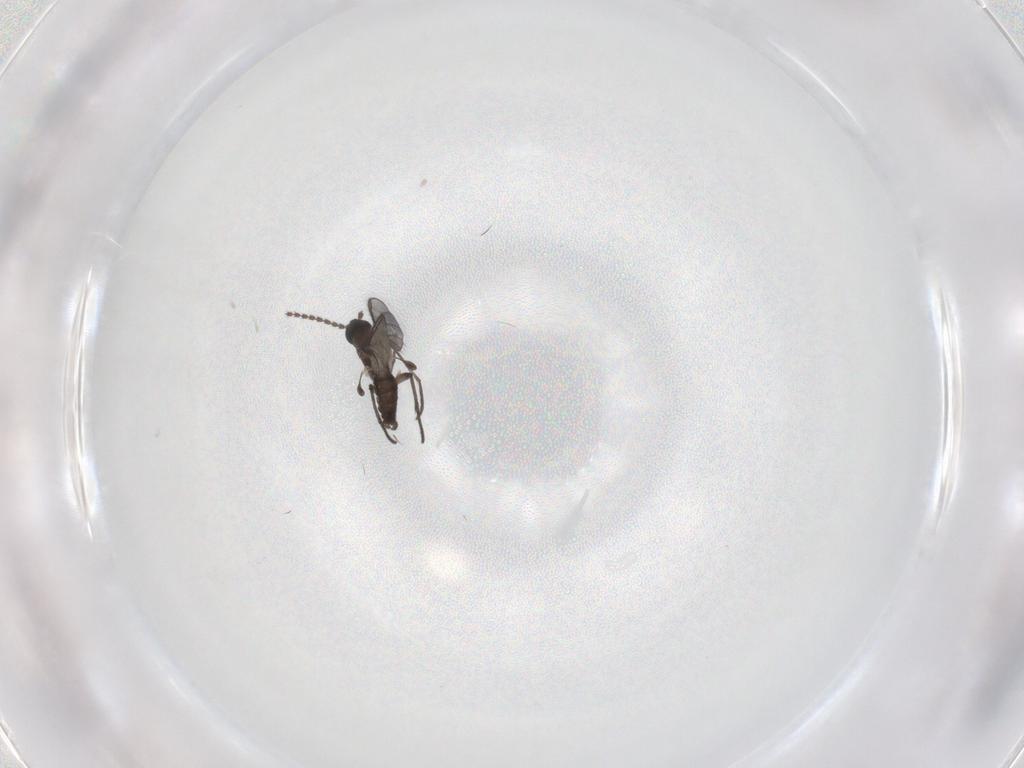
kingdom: Animalia
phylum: Arthropoda
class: Insecta
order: Diptera
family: Sciaridae
